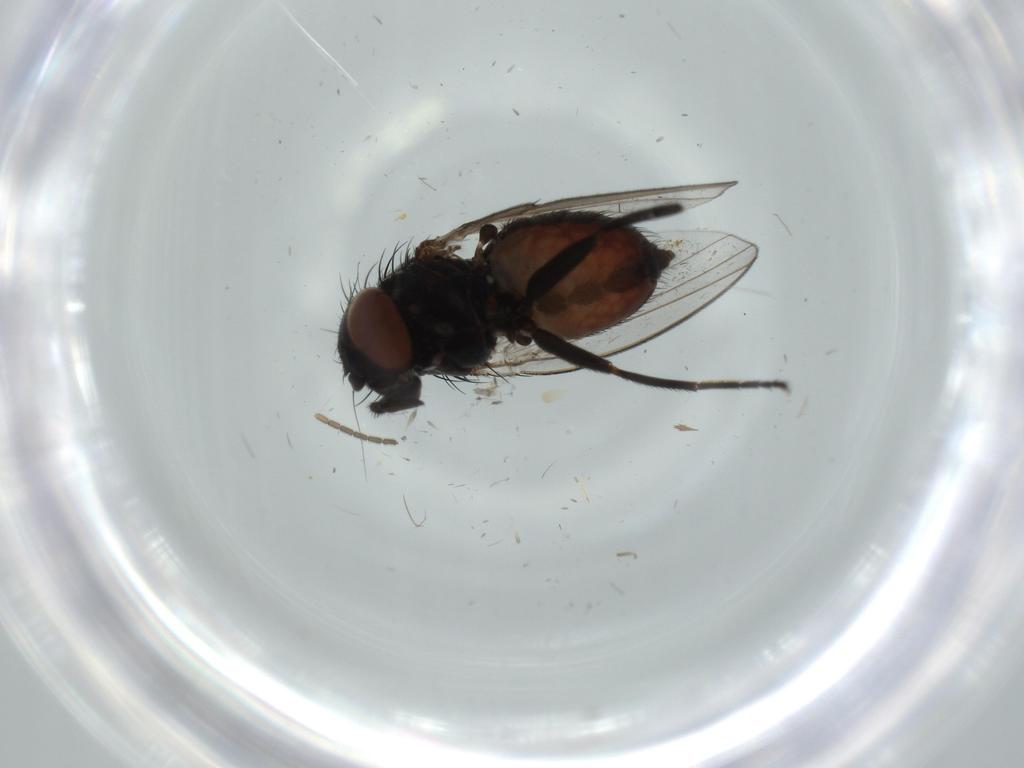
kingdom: Animalia
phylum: Arthropoda
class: Insecta
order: Diptera
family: Milichiidae
